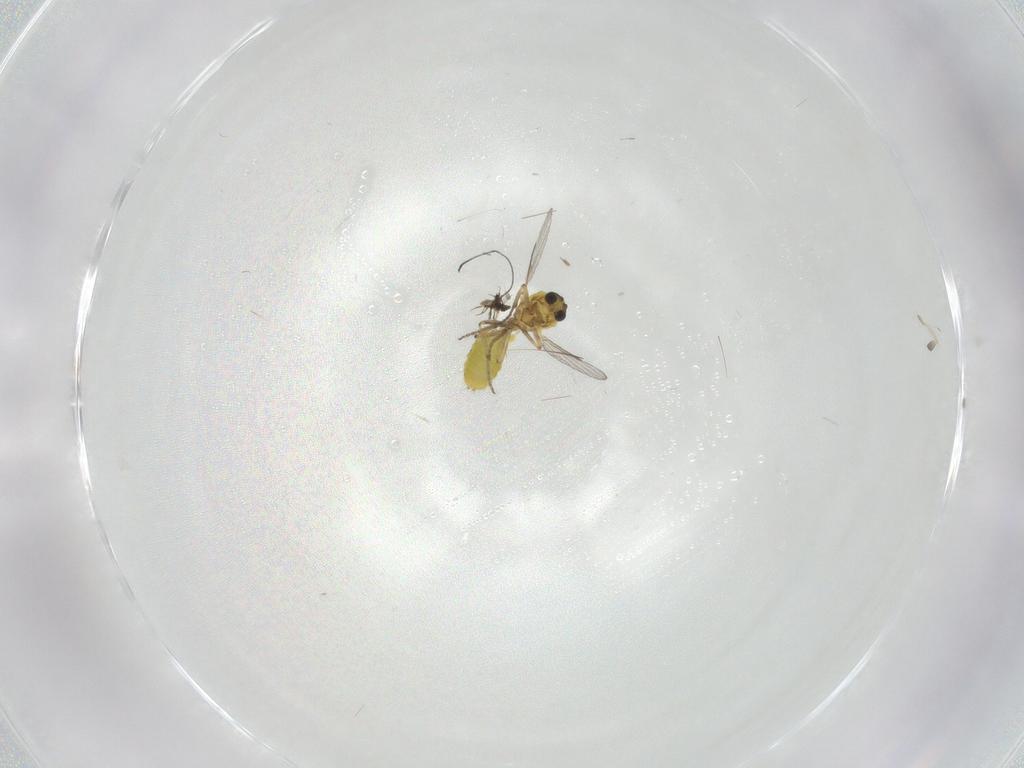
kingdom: Animalia
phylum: Arthropoda
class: Insecta
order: Diptera
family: Ceratopogonidae
